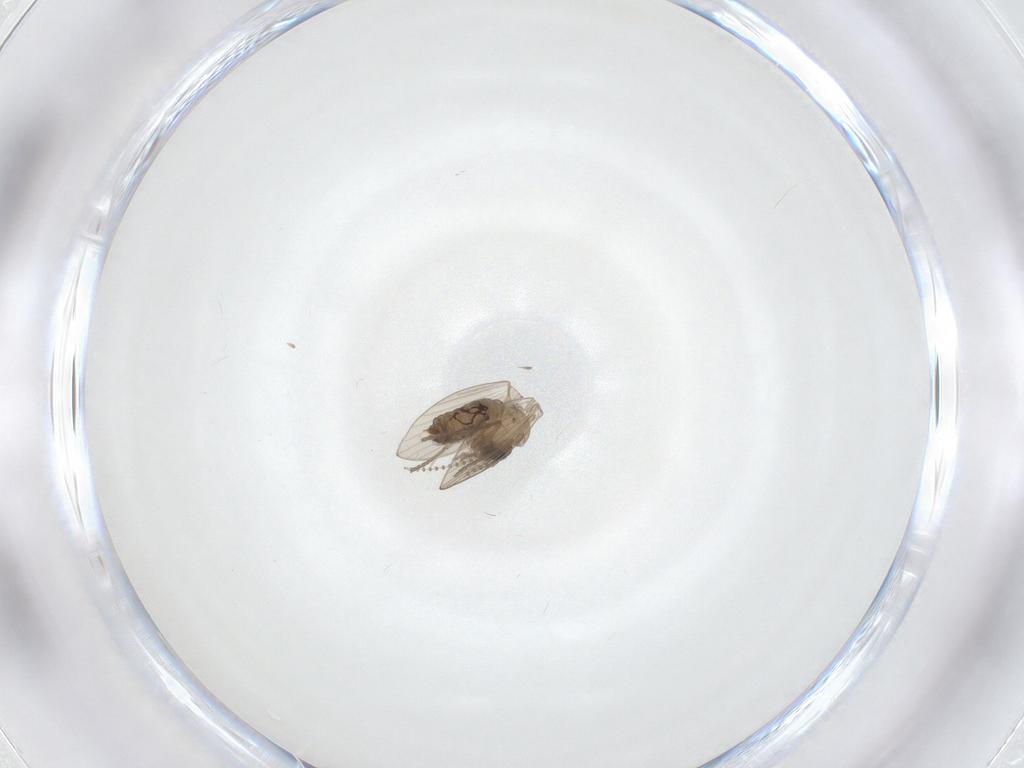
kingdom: Animalia
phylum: Arthropoda
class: Insecta
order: Diptera
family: Psychodidae
